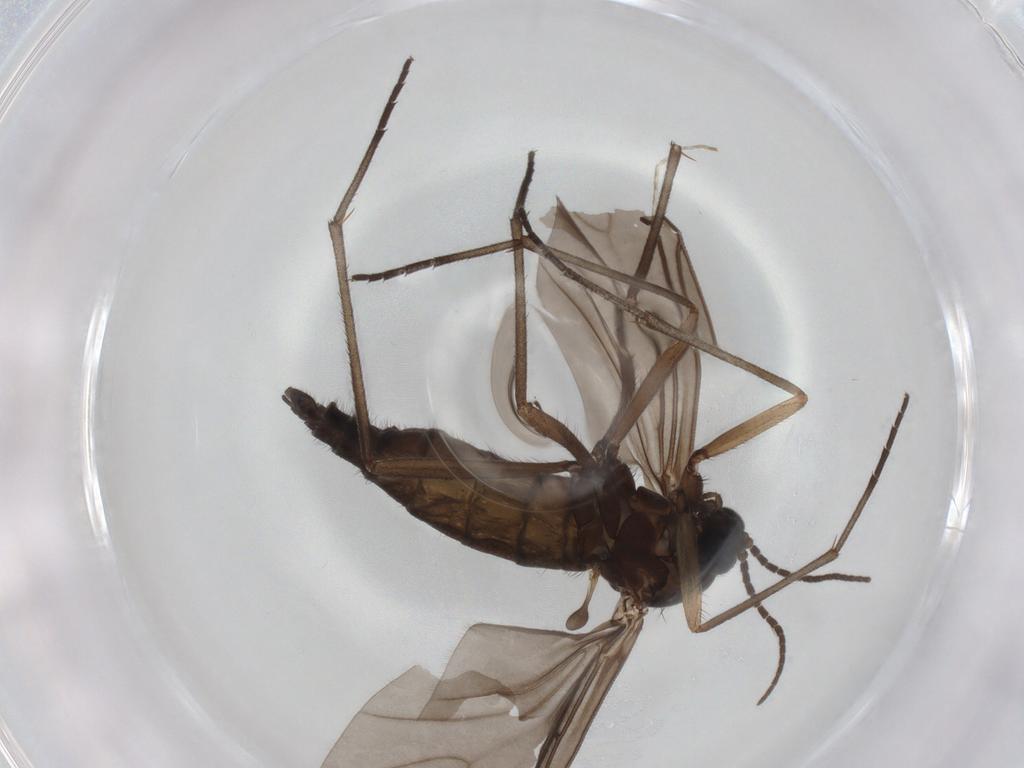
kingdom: Animalia
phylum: Arthropoda
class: Insecta
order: Diptera
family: Sciaridae
